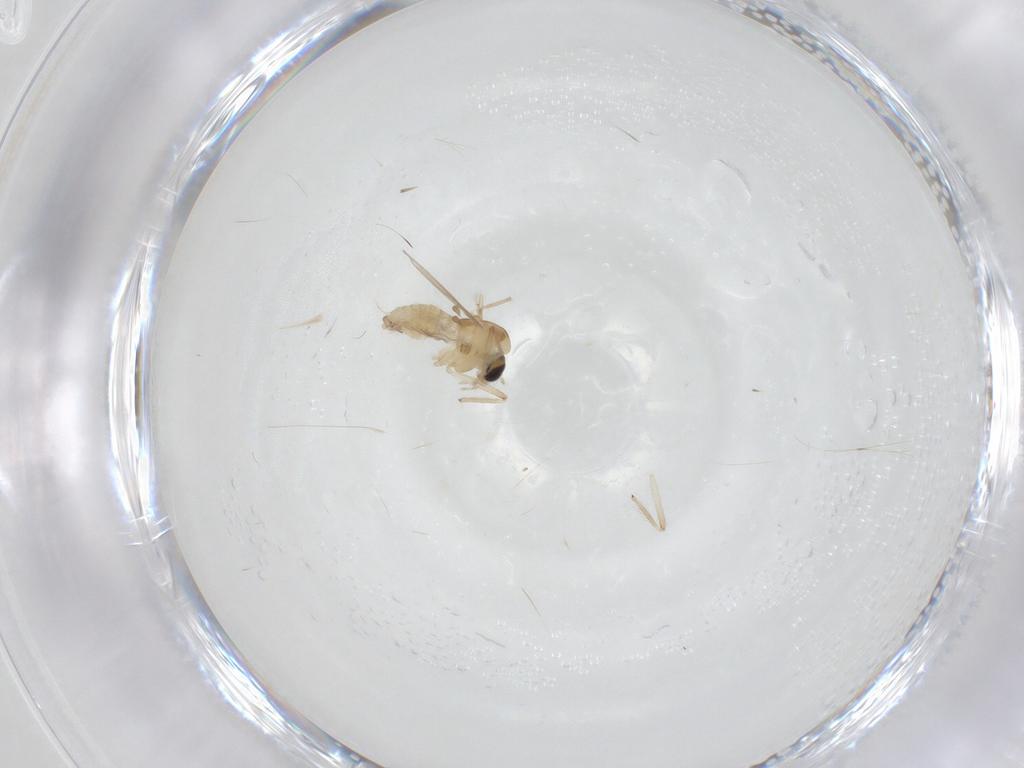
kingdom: Animalia
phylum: Arthropoda
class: Insecta
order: Diptera
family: Chironomidae
